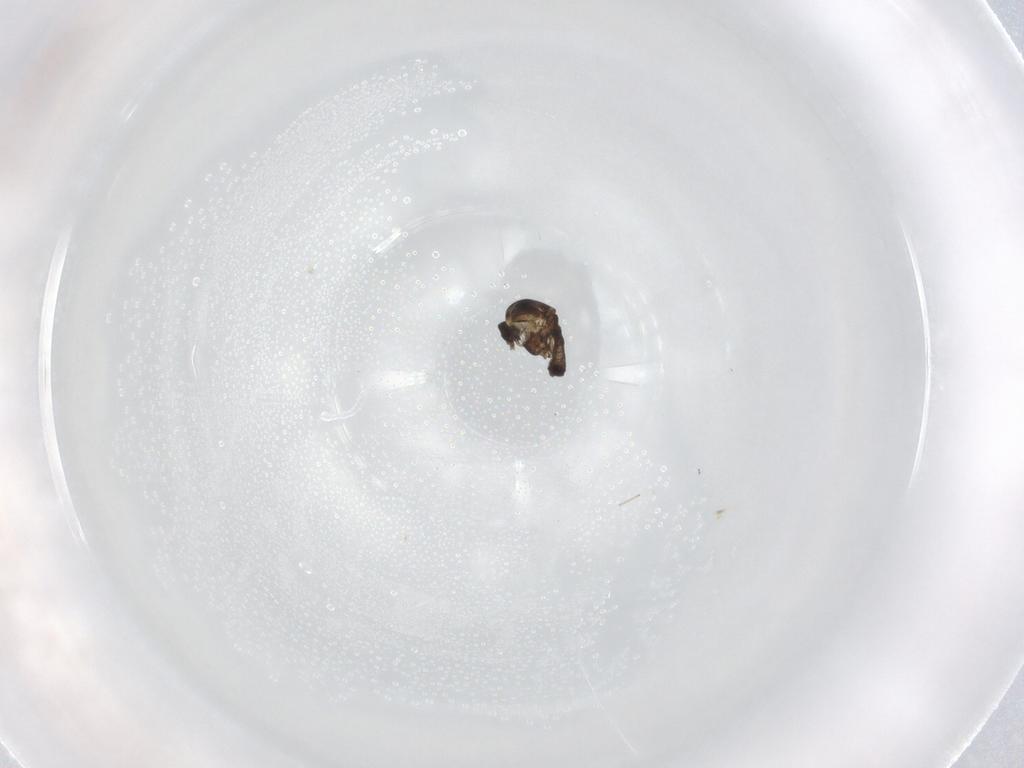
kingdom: Animalia
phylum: Arthropoda
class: Insecta
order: Diptera
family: Ceratopogonidae
